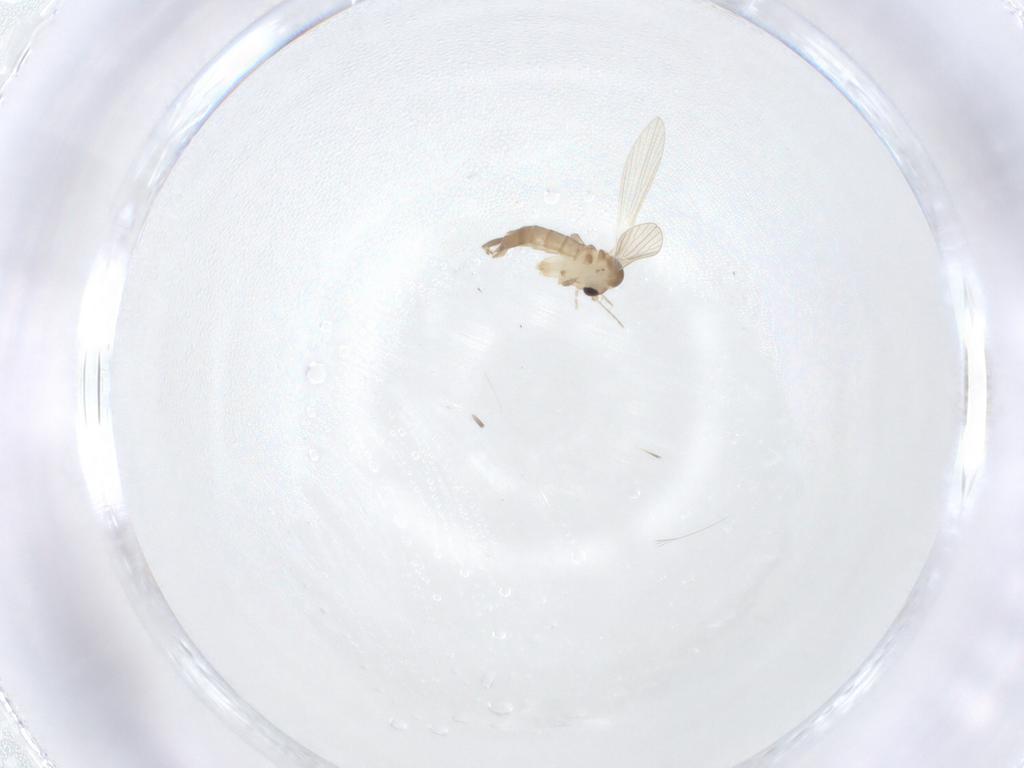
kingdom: Animalia
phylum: Arthropoda
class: Insecta
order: Diptera
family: Psychodidae
